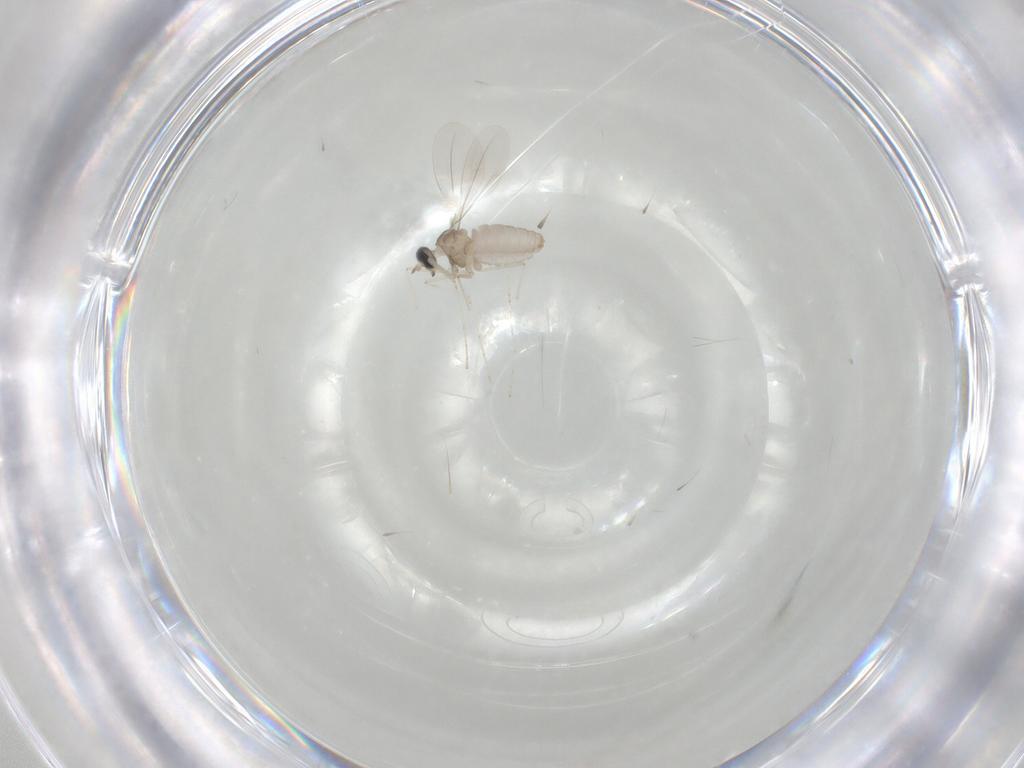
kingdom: Animalia
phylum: Arthropoda
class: Insecta
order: Diptera
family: Cecidomyiidae
